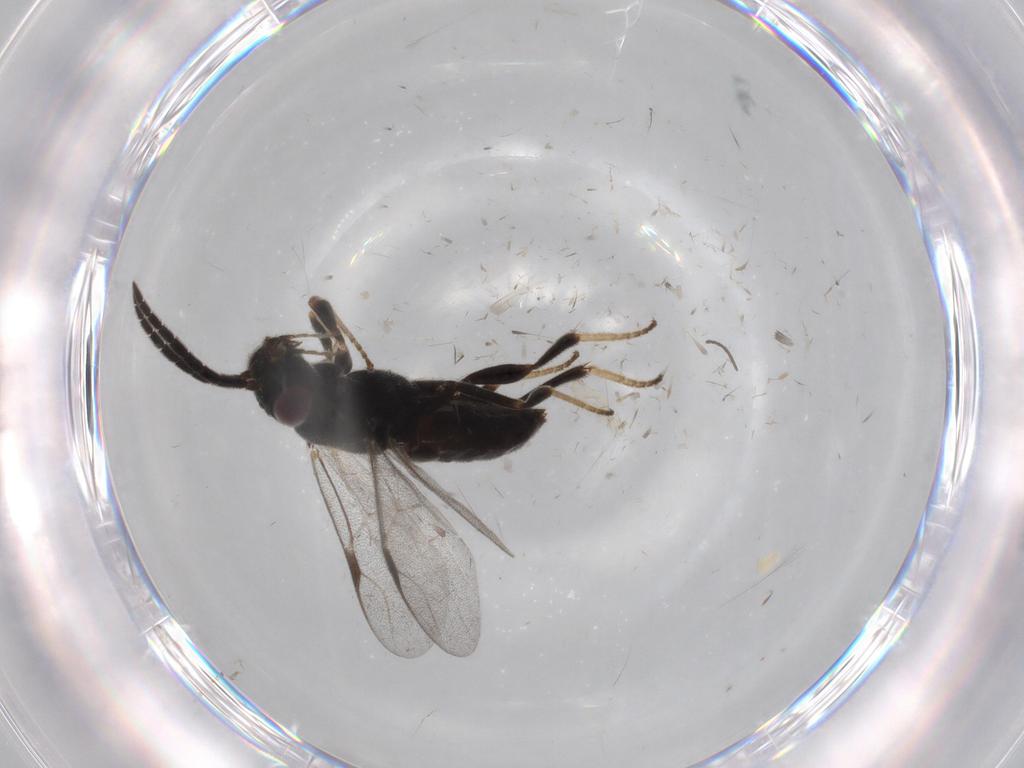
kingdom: Animalia
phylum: Arthropoda
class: Insecta
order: Hymenoptera
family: Dryinidae
